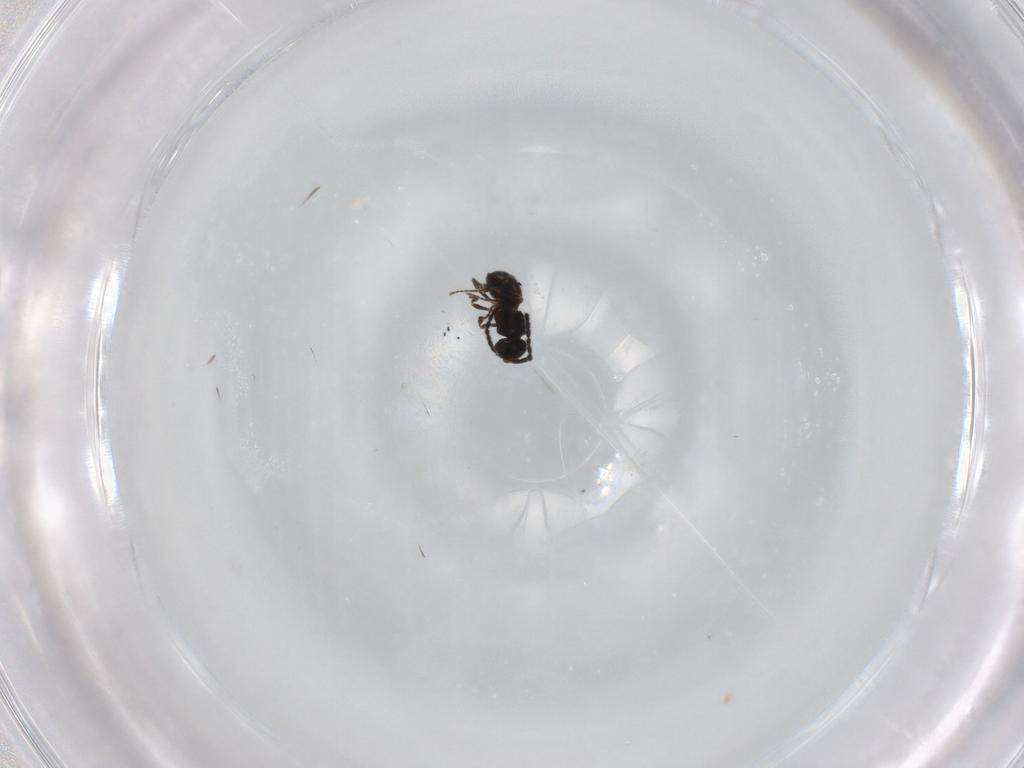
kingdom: Animalia
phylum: Arthropoda
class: Insecta
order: Hymenoptera
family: Scelionidae
